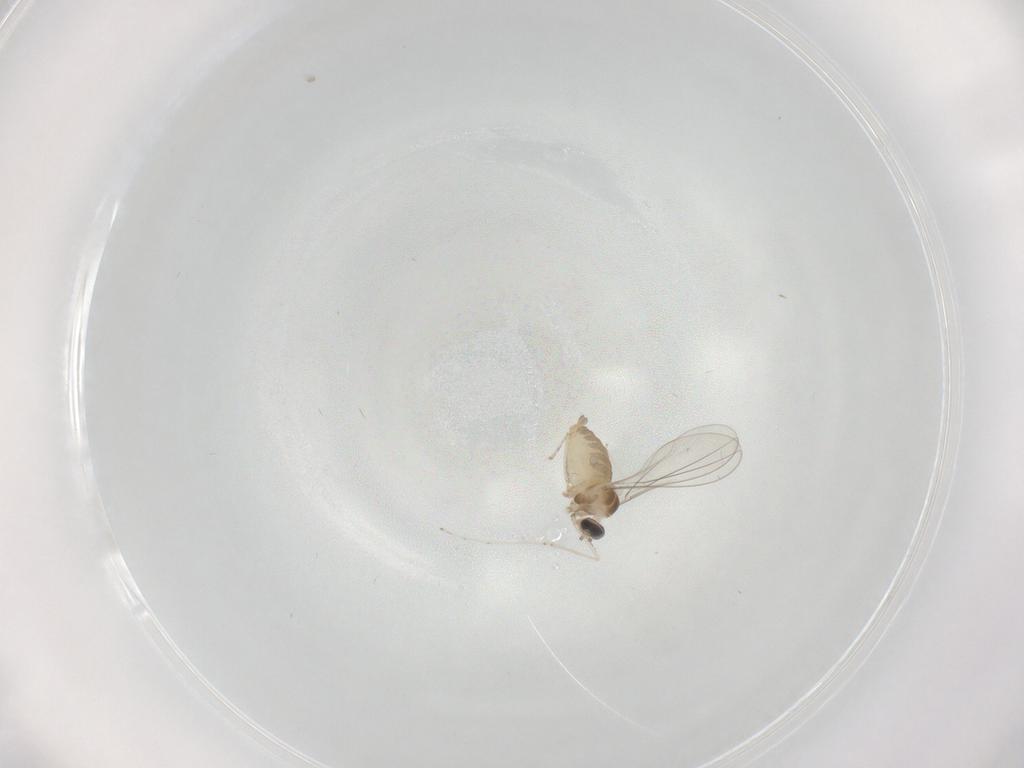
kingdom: Animalia
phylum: Arthropoda
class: Insecta
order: Diptera
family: Cecidomyiidae
